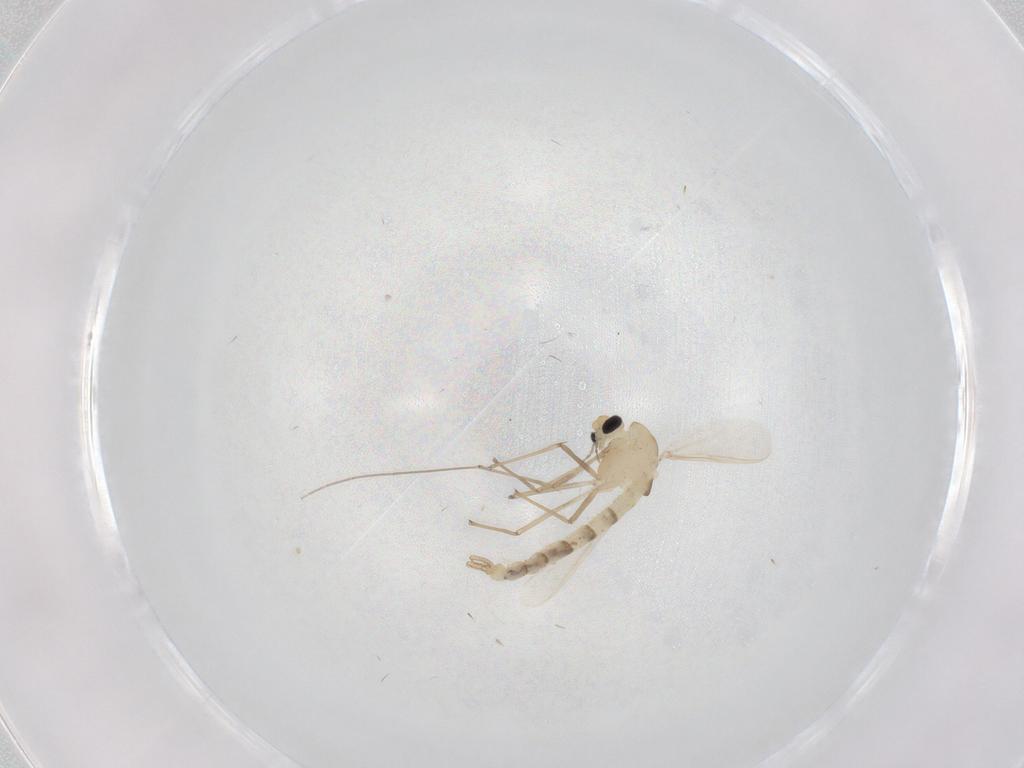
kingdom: Animalia
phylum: Arthropoda
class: Insecta
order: Diptera
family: Chironomidae
